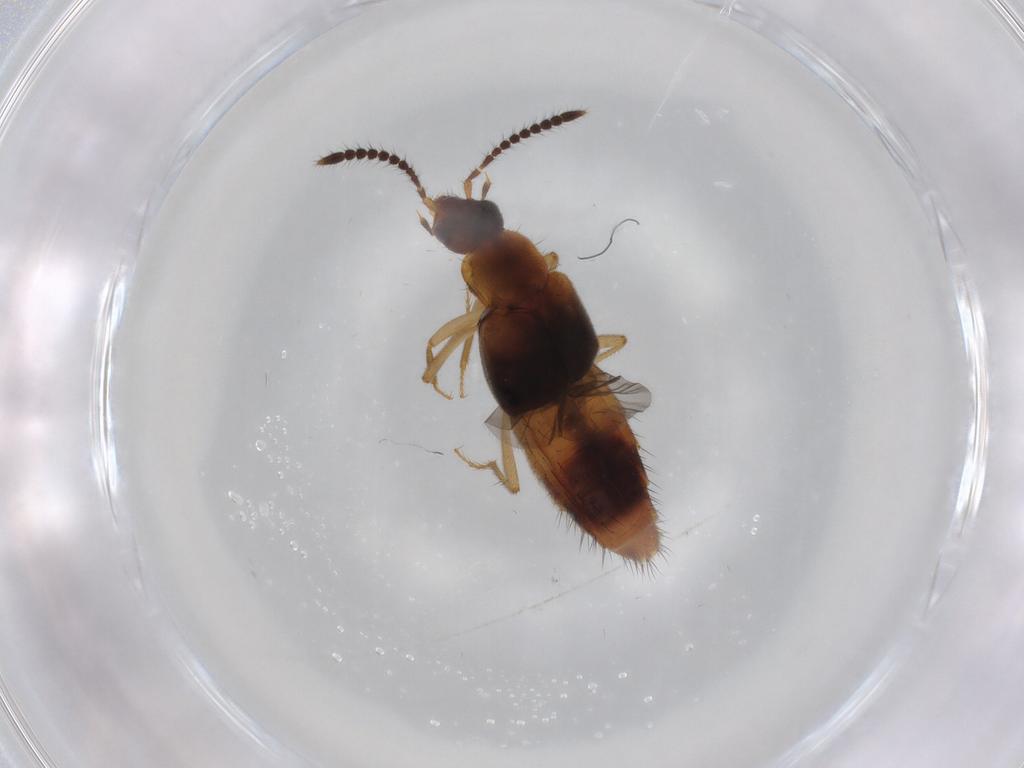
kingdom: Animalia
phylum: Arthropoda
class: Insecta
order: Coleoptera
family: Staphylinidae
